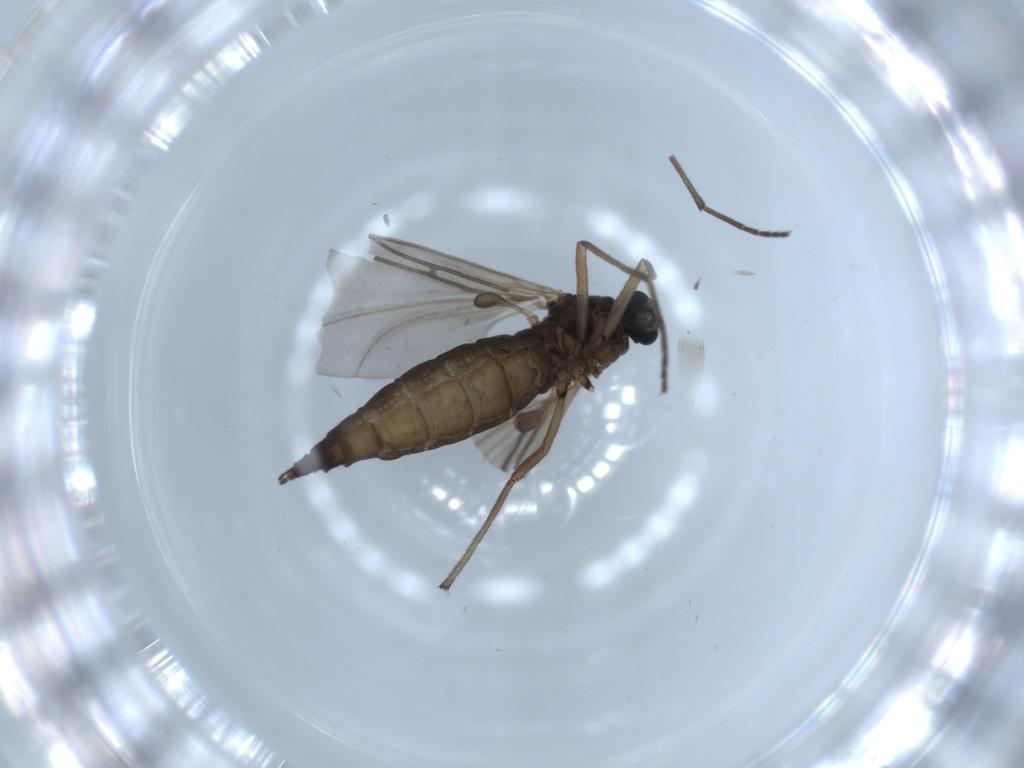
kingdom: Animalia
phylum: Arthropoda
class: Insecta
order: Diptera
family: Sciaridae
